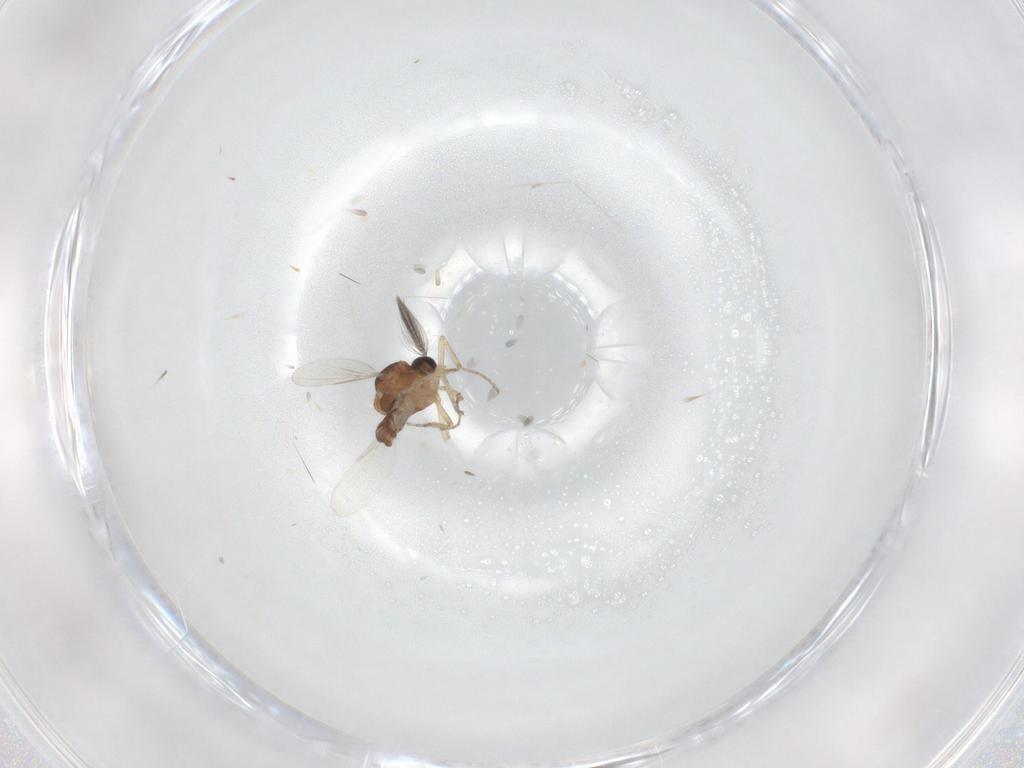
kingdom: Animalia
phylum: Arthropoda
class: Insecta
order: Diptera
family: Ceratopogonidae
